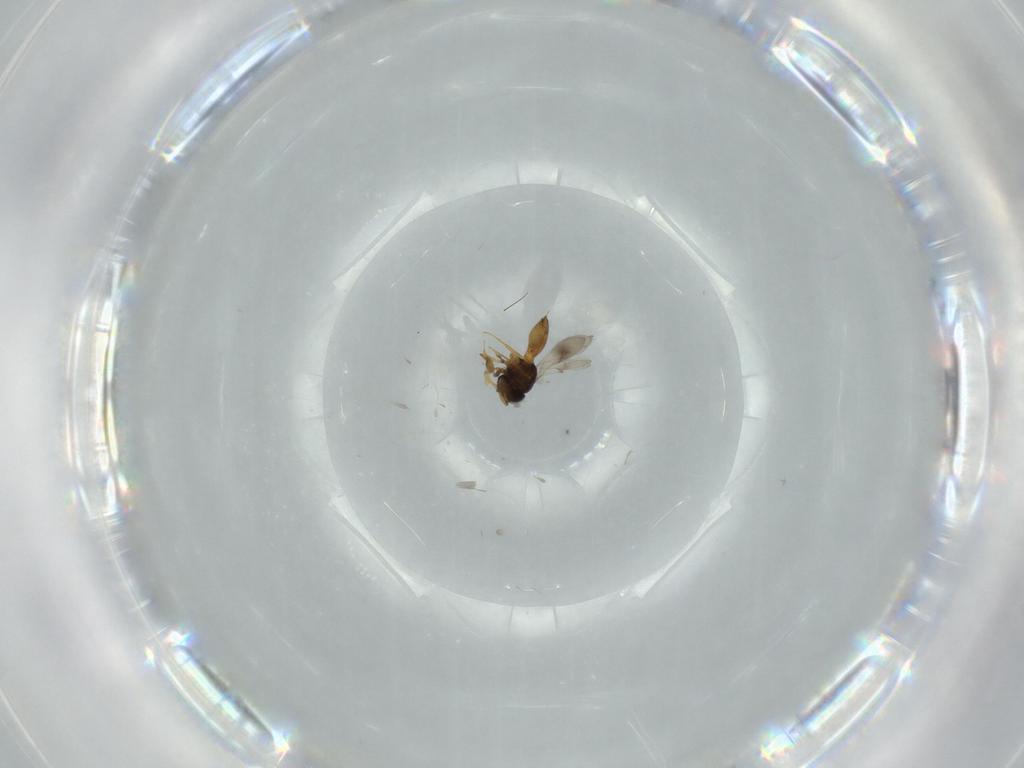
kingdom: Animalia
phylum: Arthropoda
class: Insecta
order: Hymenoptera
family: Scelionidae
